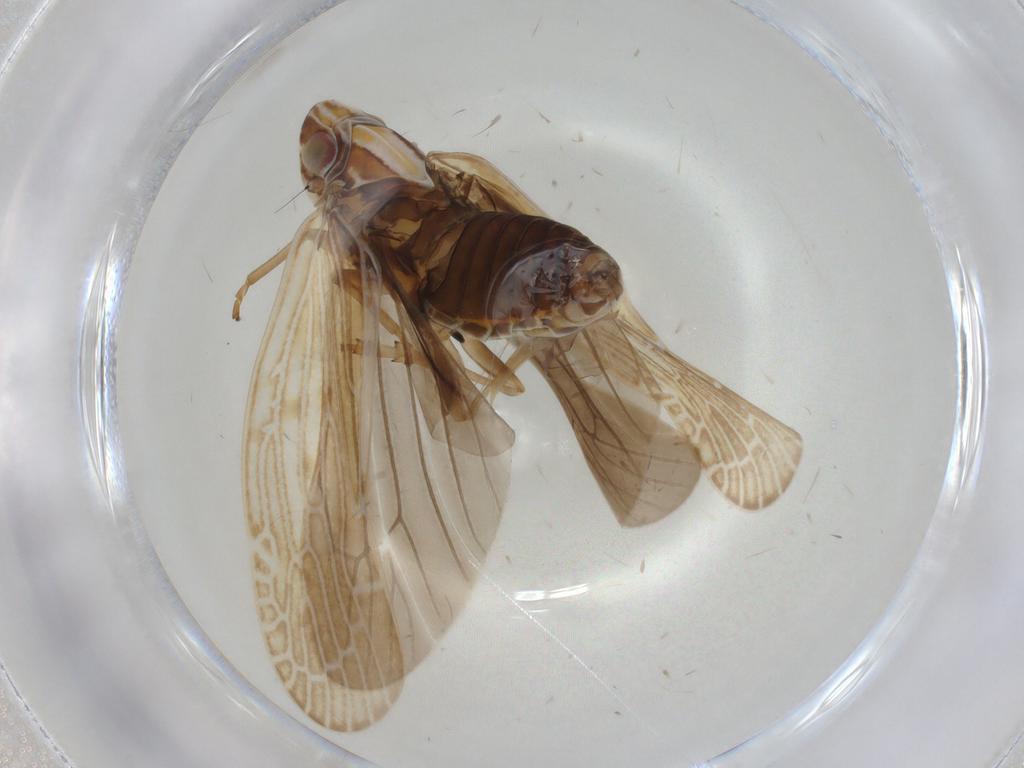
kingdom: Animalia
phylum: Arthropoda
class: Insecta
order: Hemiptera
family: Achilidae
